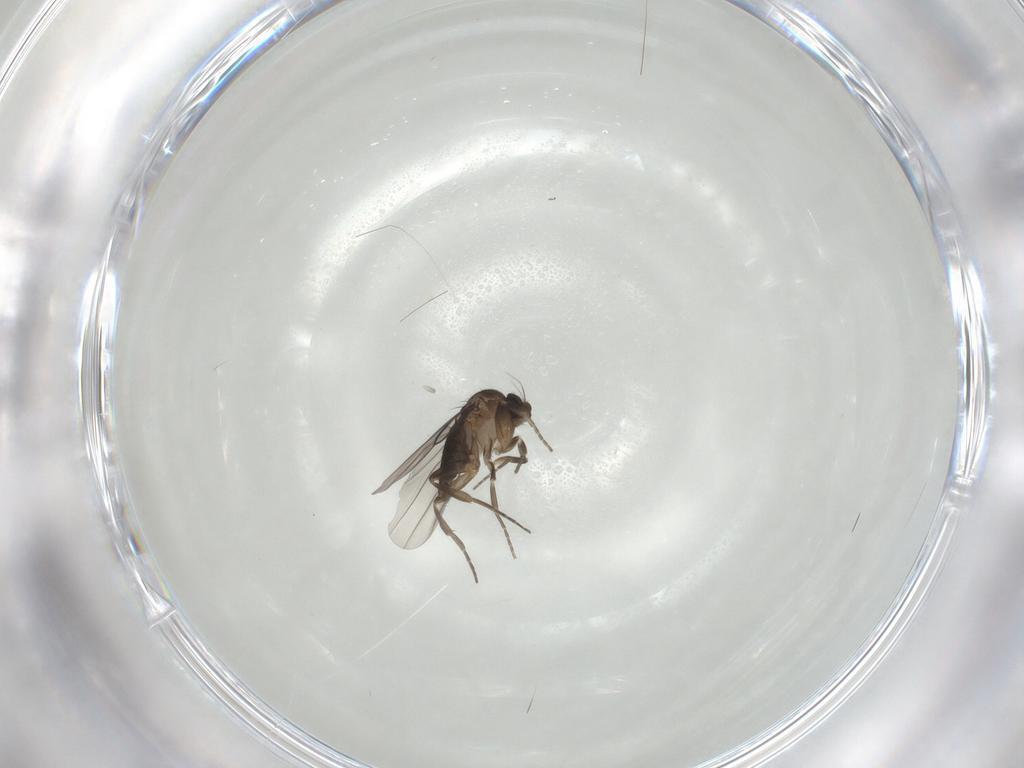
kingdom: Animalia
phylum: Arthropoda
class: Insecta
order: Diptera
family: Phoridae
